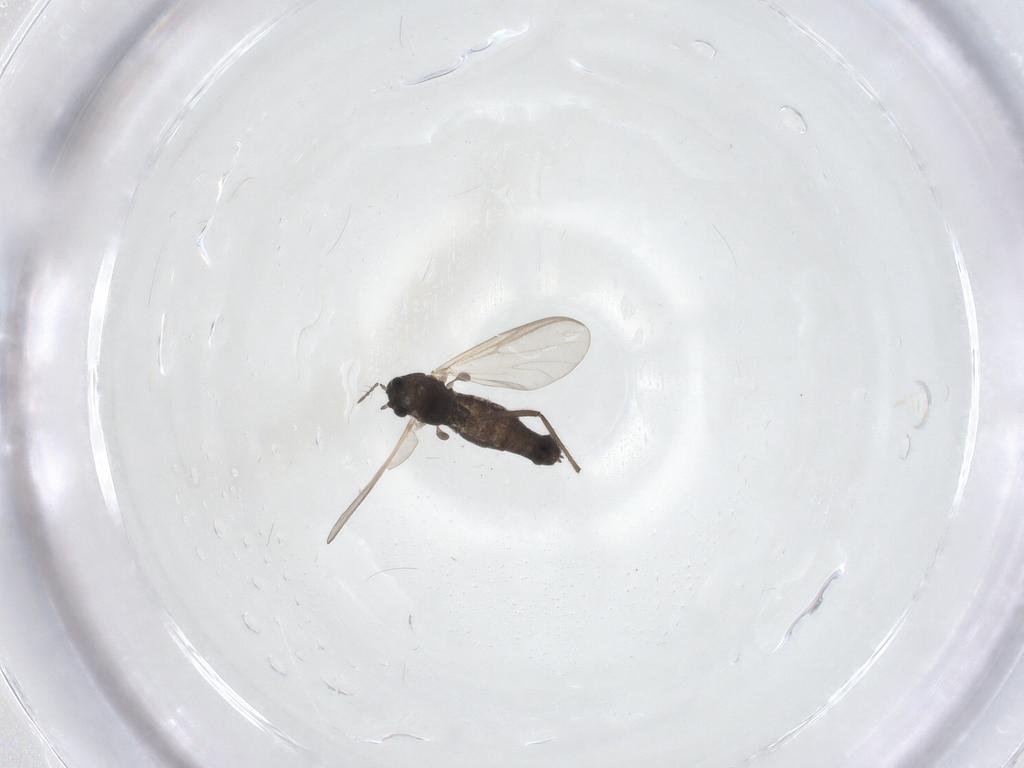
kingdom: Animalia
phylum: Arthropoda
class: Insecta
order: Diptera
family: Chironomidae
